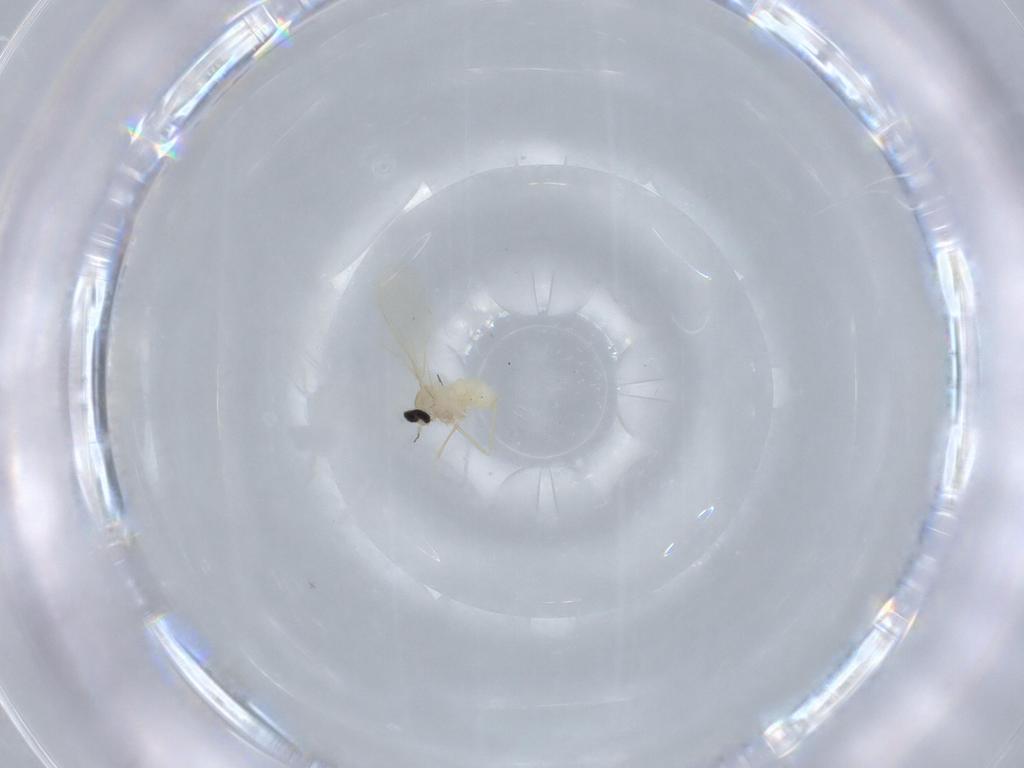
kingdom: Animalia
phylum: Arthropoda
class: Insecta
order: Diptera
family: Cecidomyiidae
